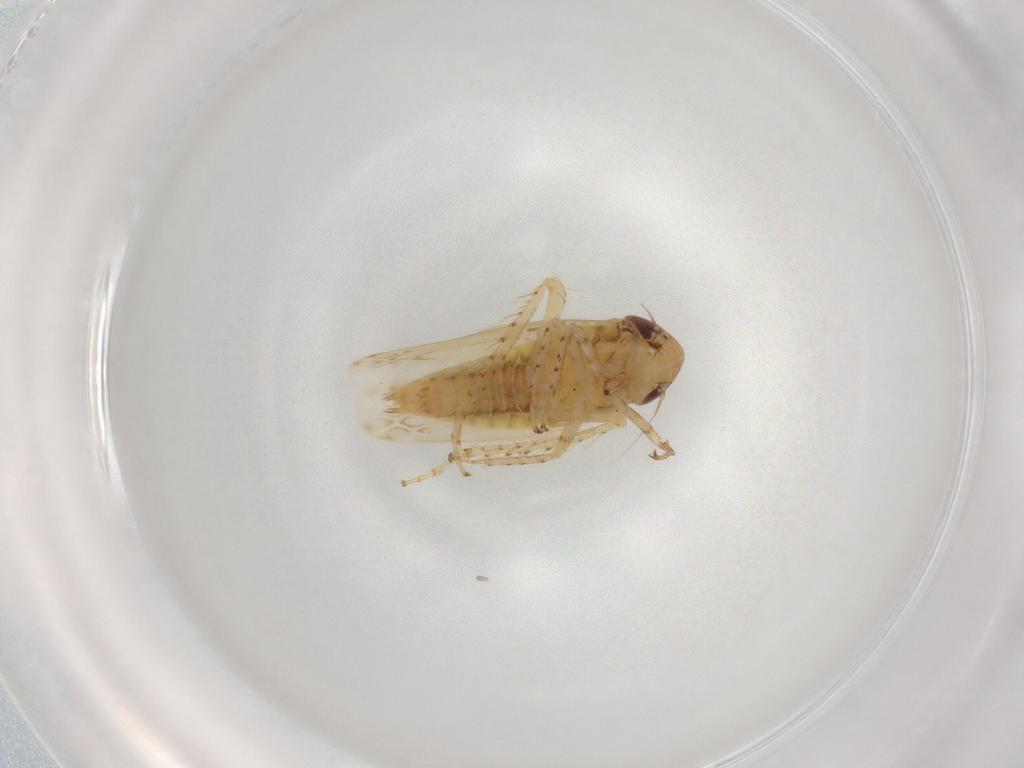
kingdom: Animalia
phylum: Arthropoda
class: Insecta
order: Hemiptera
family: Cicadellidae
